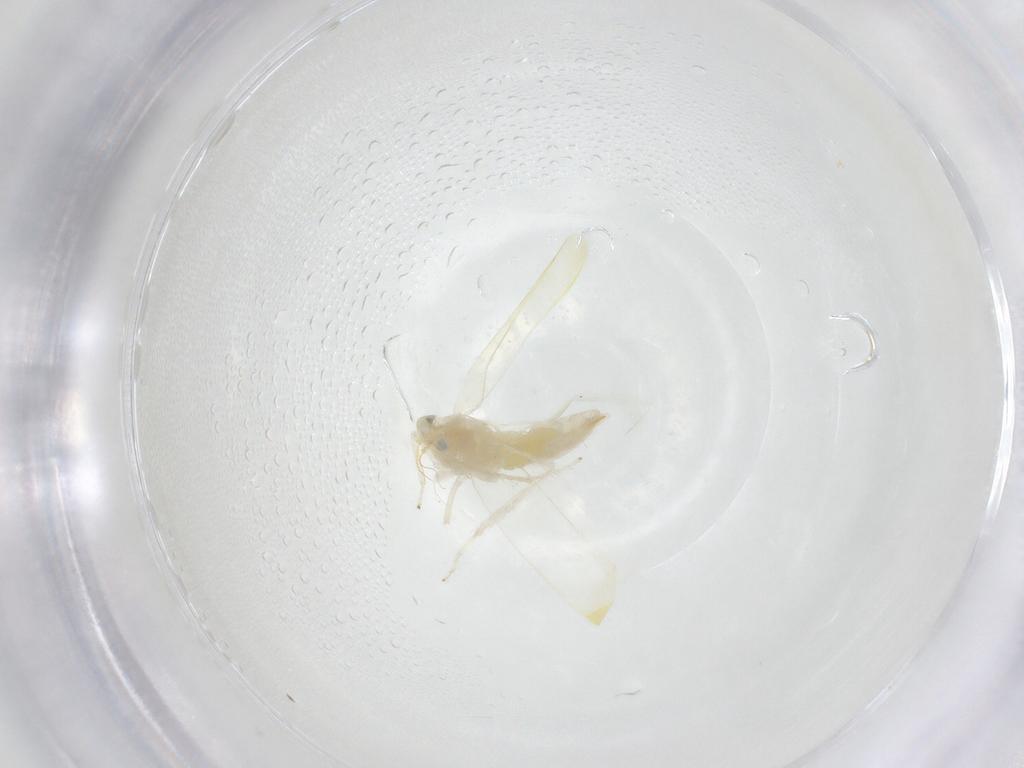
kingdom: Animalia
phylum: Arthropoda
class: Insecta
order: Hemiptera
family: Cicadellidae
